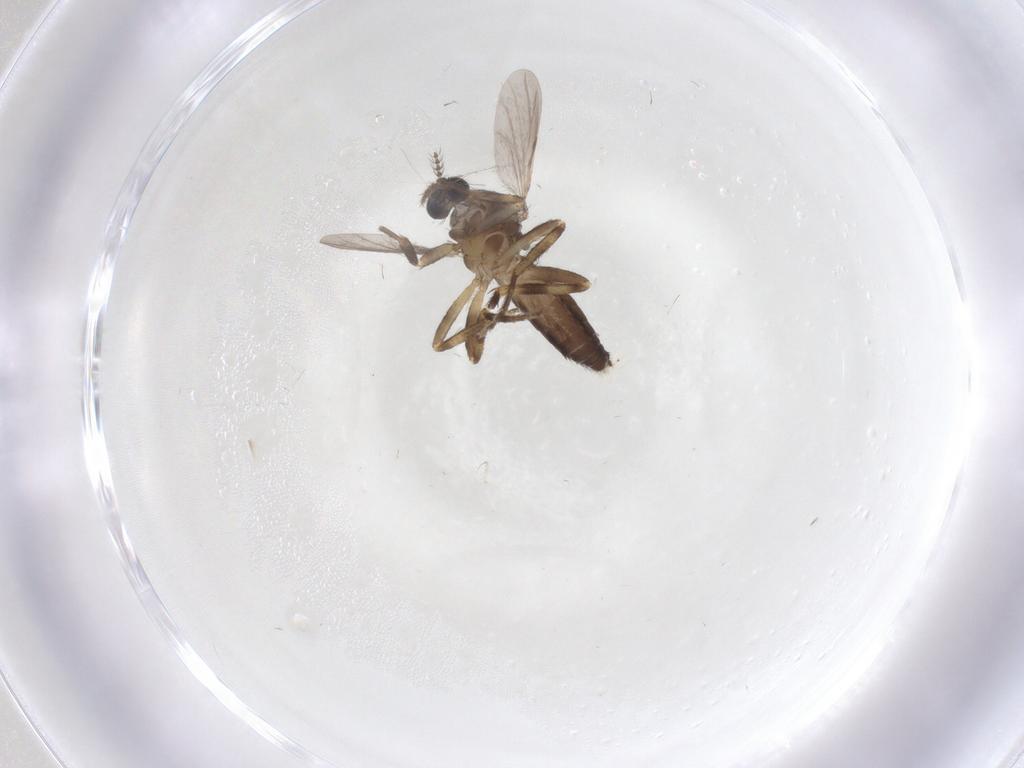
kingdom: Animalia
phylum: Arthropoda
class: Insecta
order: Diptera
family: Ceratopogonidae
